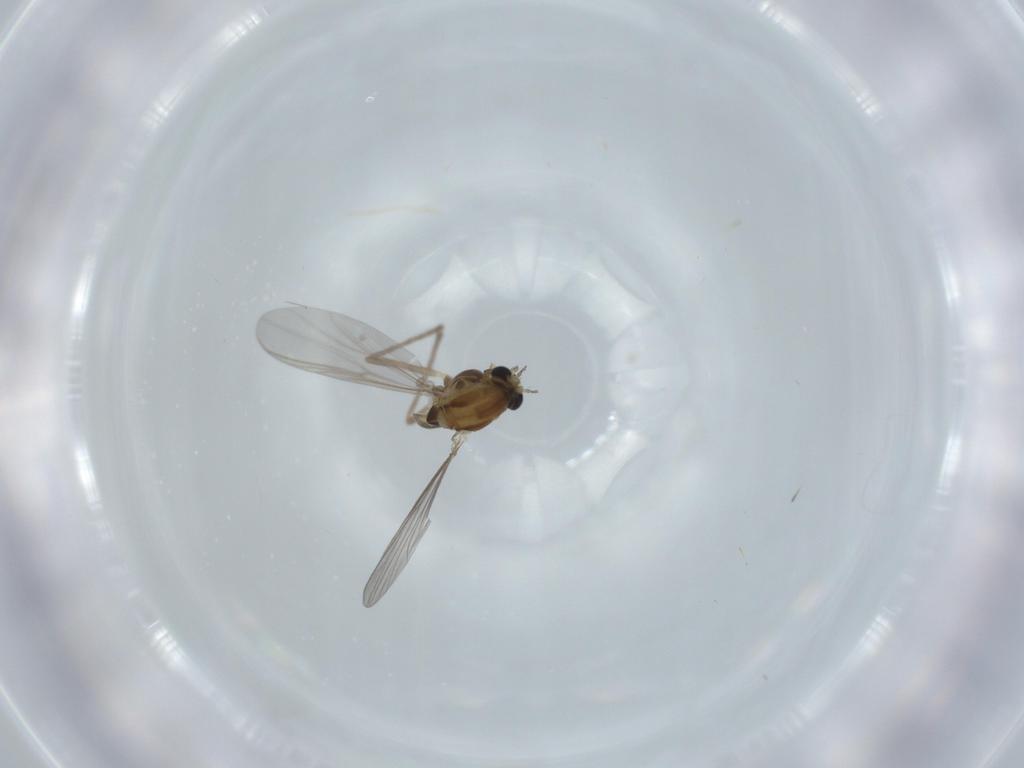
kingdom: Animalia
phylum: Arthropoda
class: Insecta
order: Diptera
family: Chironomidae
